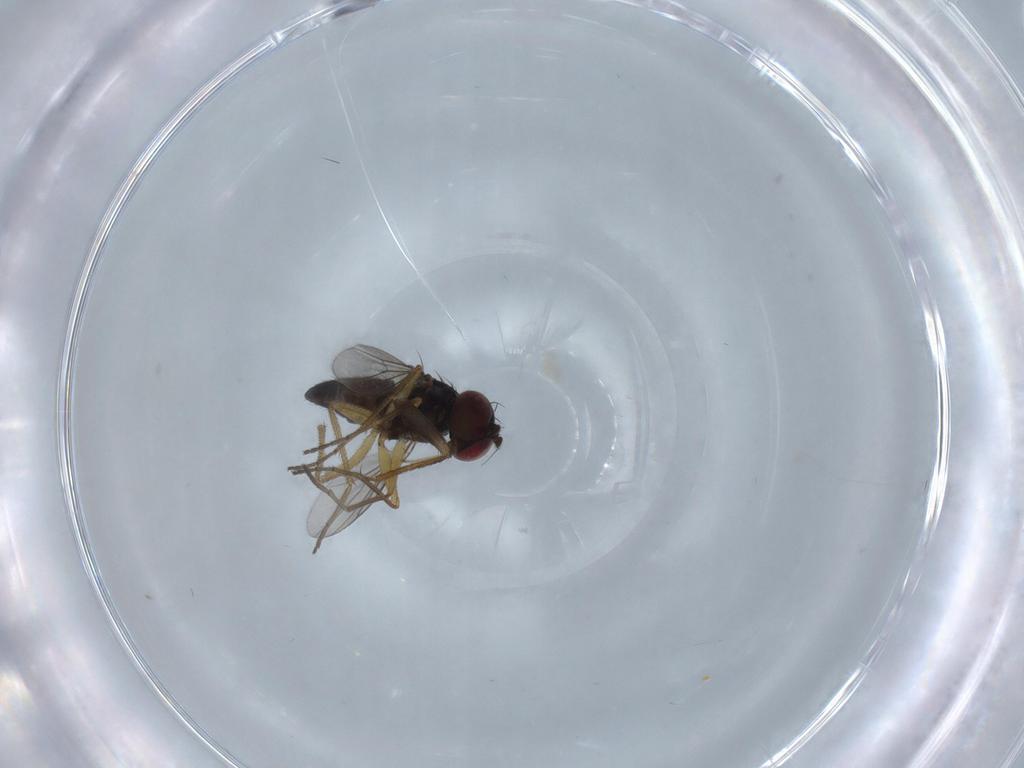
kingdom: Animalia
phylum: Arthropoda
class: Insecta
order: Diptera
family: Dolichopodidae
